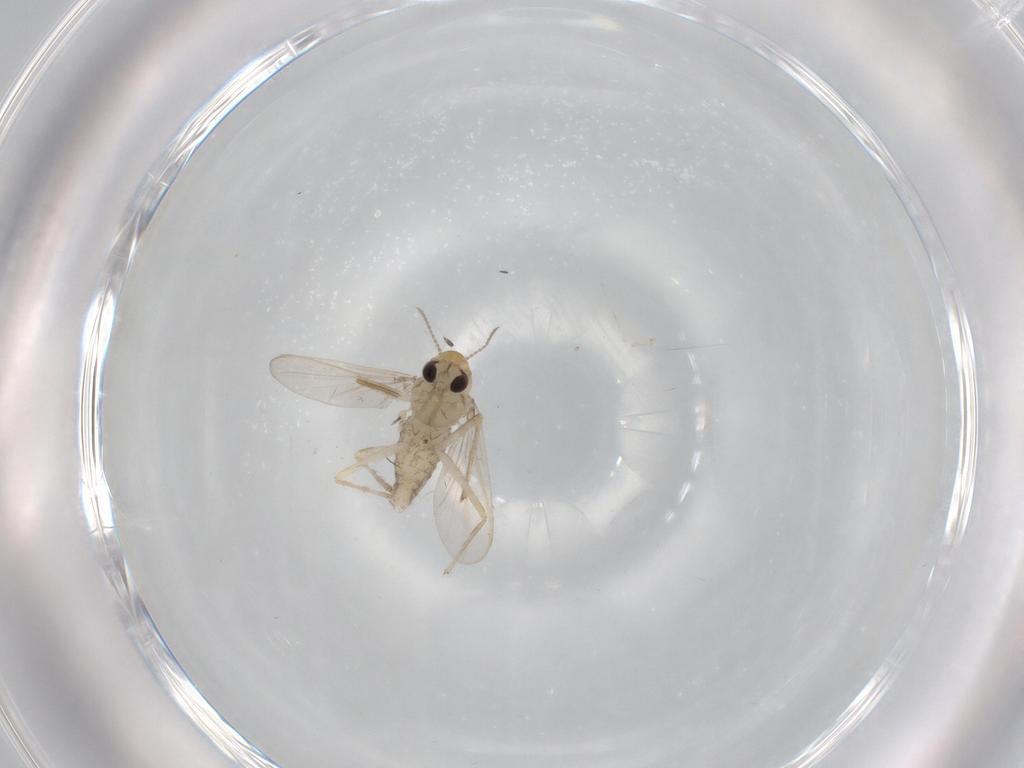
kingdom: Animalia
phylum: Arthropoda
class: Insecta
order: Diptera
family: Chironomidae
